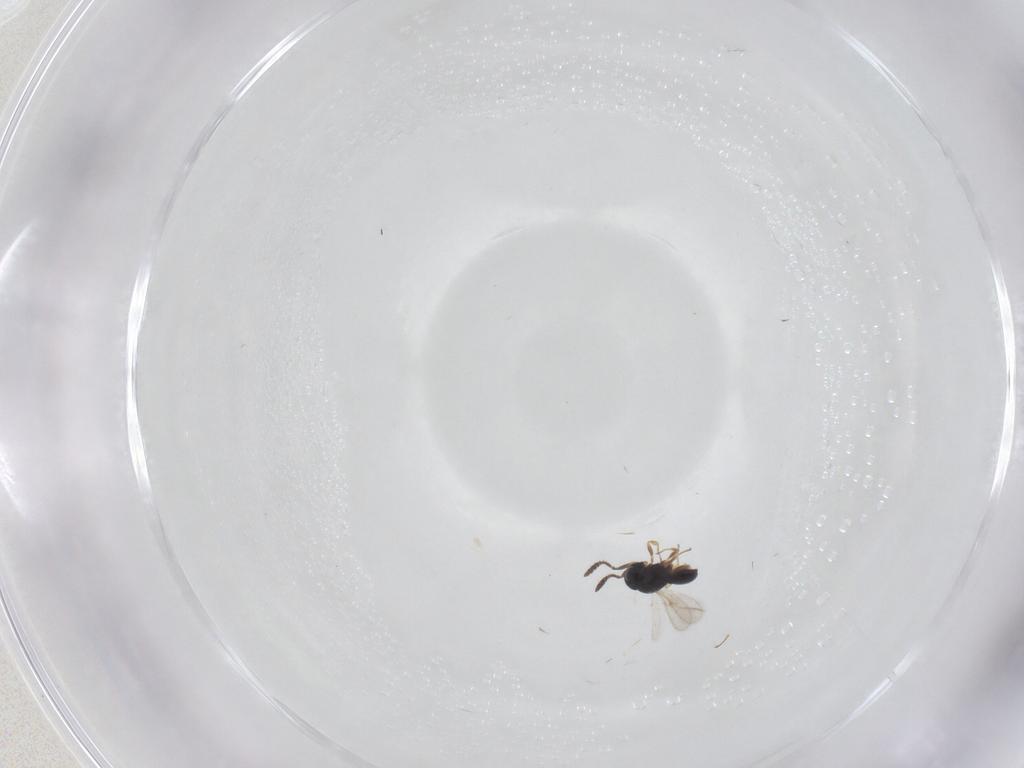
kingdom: Animalia
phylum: Arthropoda
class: Insecta
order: Hymenoptera
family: Scelionidae
